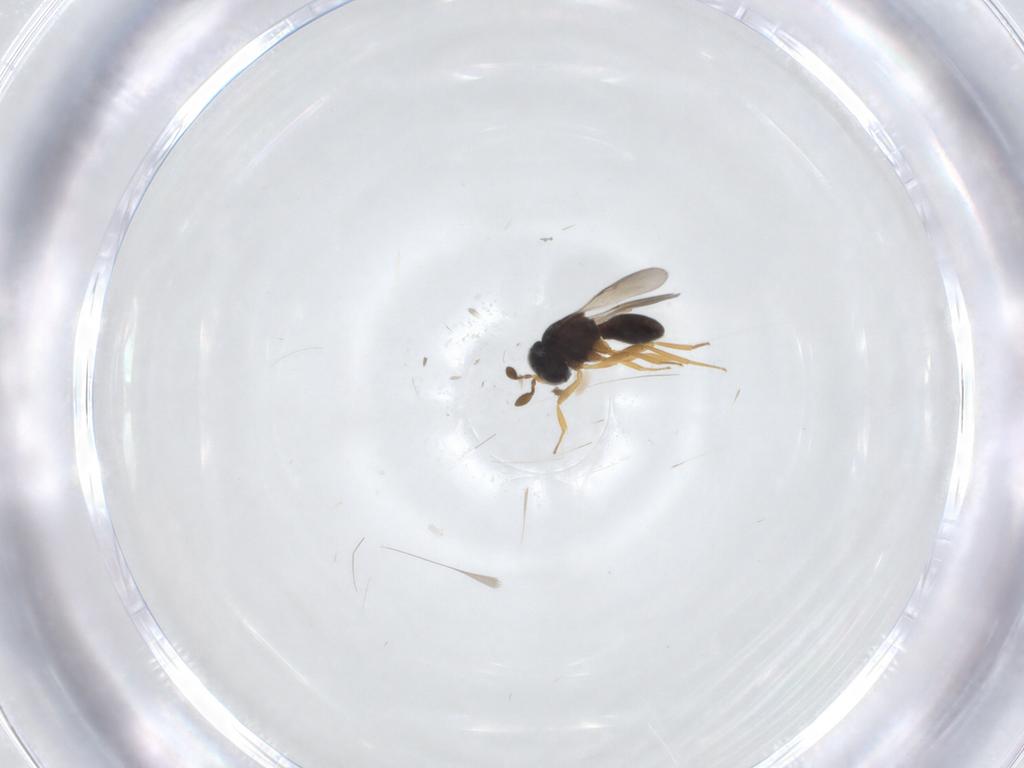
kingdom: Animalia
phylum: Arthropoda
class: Insecta
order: Hymenoptera
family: Scelionidae
